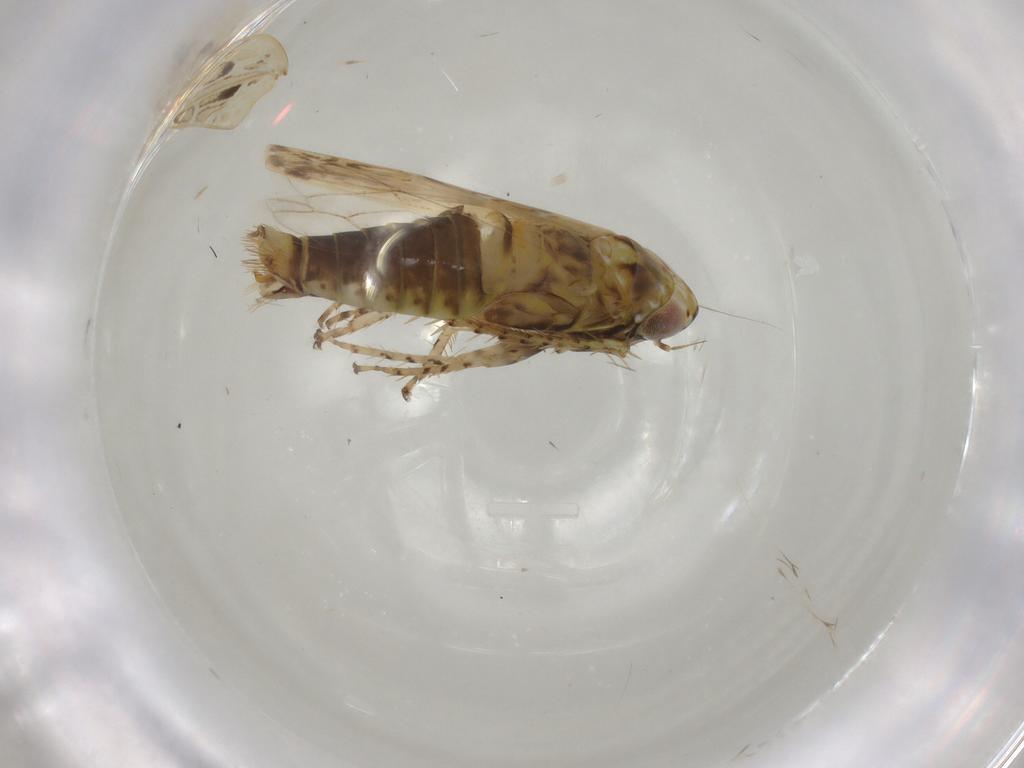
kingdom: Animalia
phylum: Arthropoda
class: Insecta
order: Hemiptera
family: Cicadellidae
